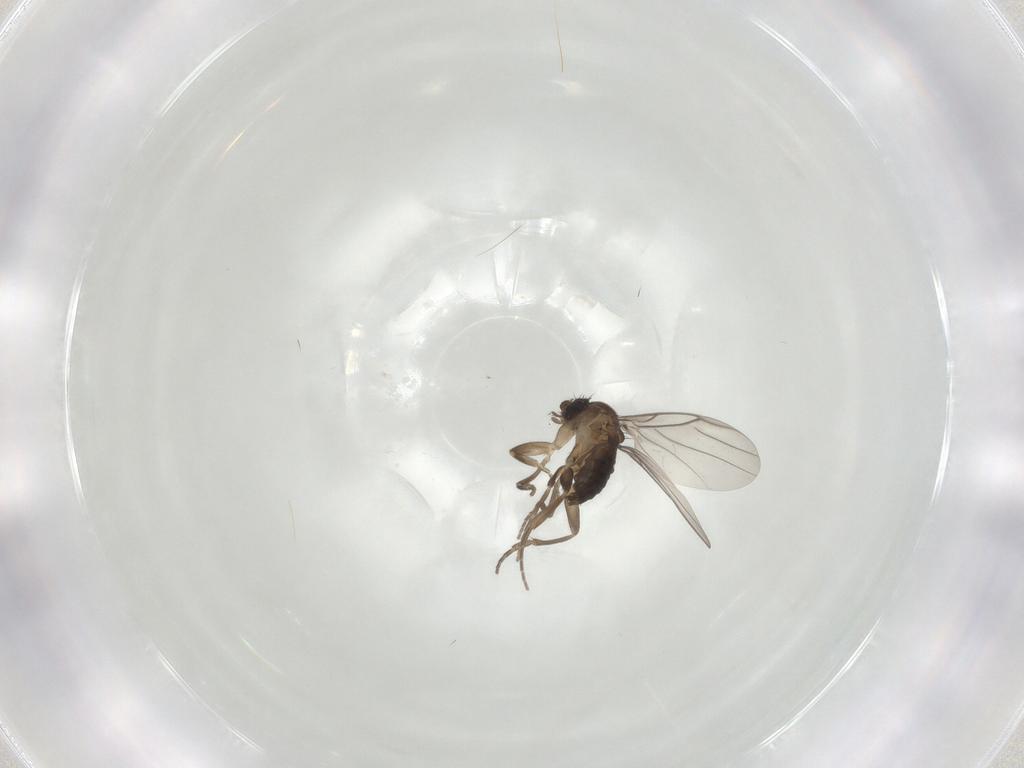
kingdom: Animalia
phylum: Arthropoda
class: Insecta
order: Diptera
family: Phoridae
